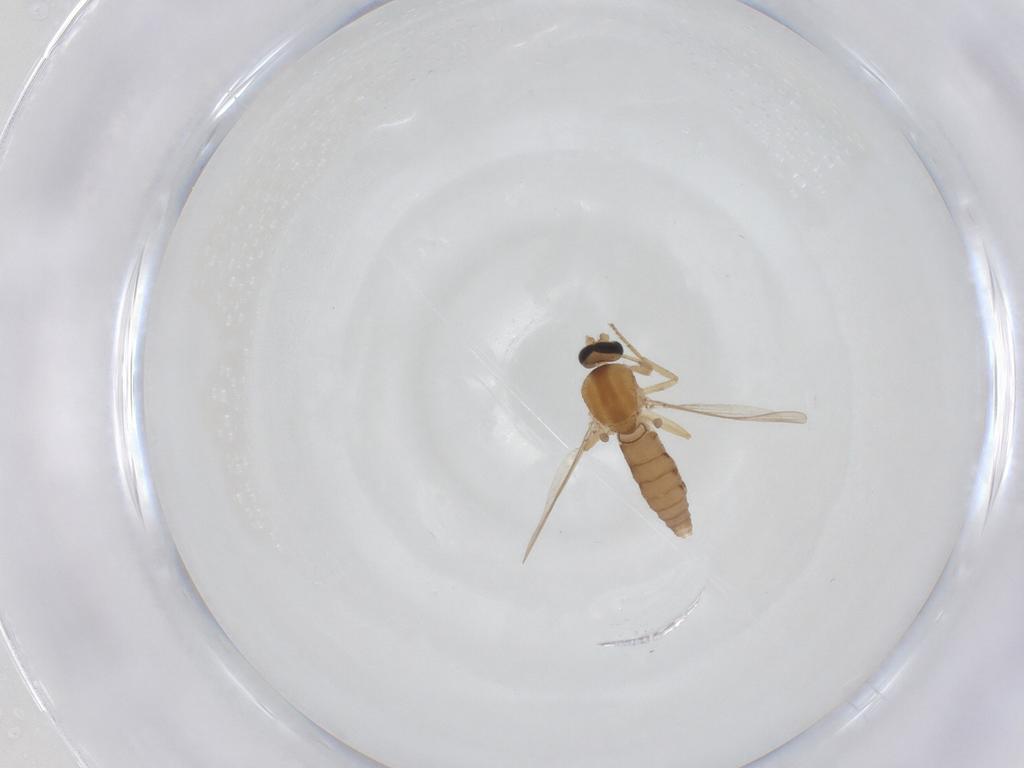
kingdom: Animalia
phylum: Arthropoda
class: Insecta
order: Diptera
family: Ceratopogonidae
